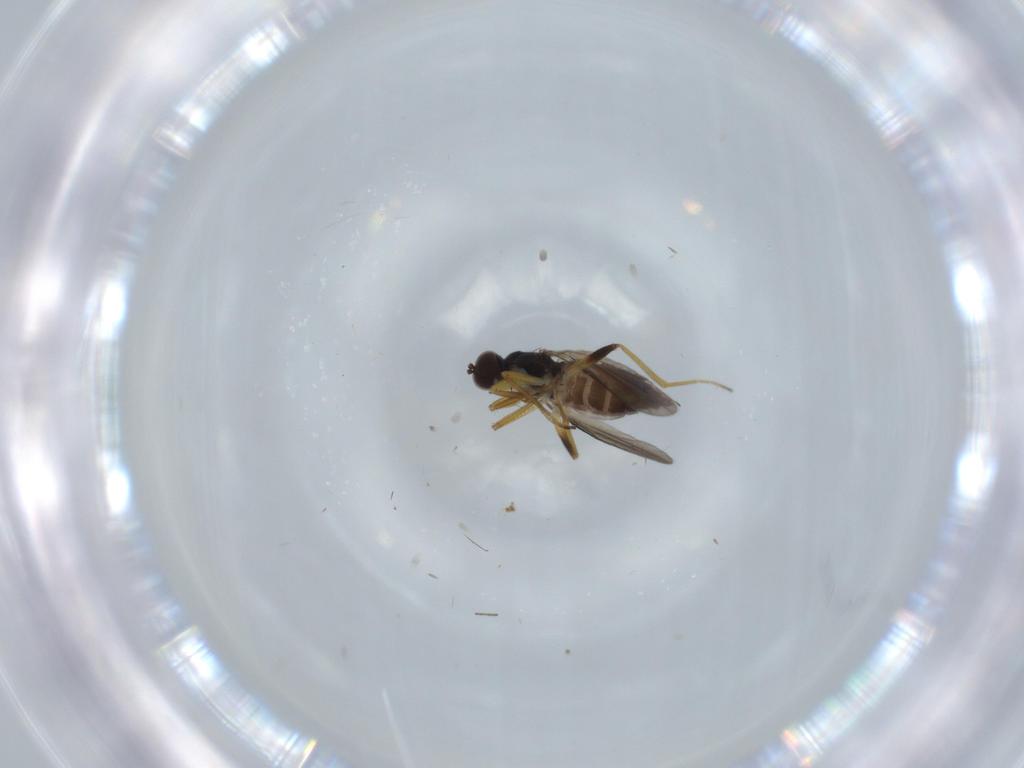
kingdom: Animalia
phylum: Arthropoda
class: Insecta
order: Diptera
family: Hybotidae
